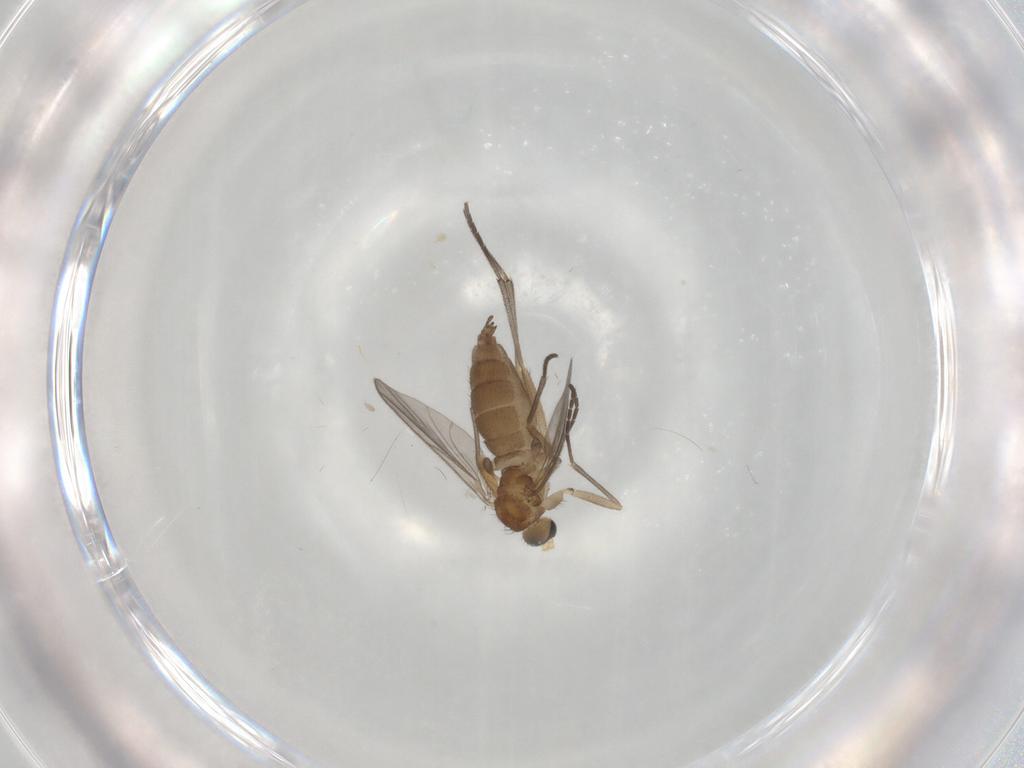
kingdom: Animalia
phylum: Arthropoda
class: Insecta
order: Diptera
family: Sciaridae
